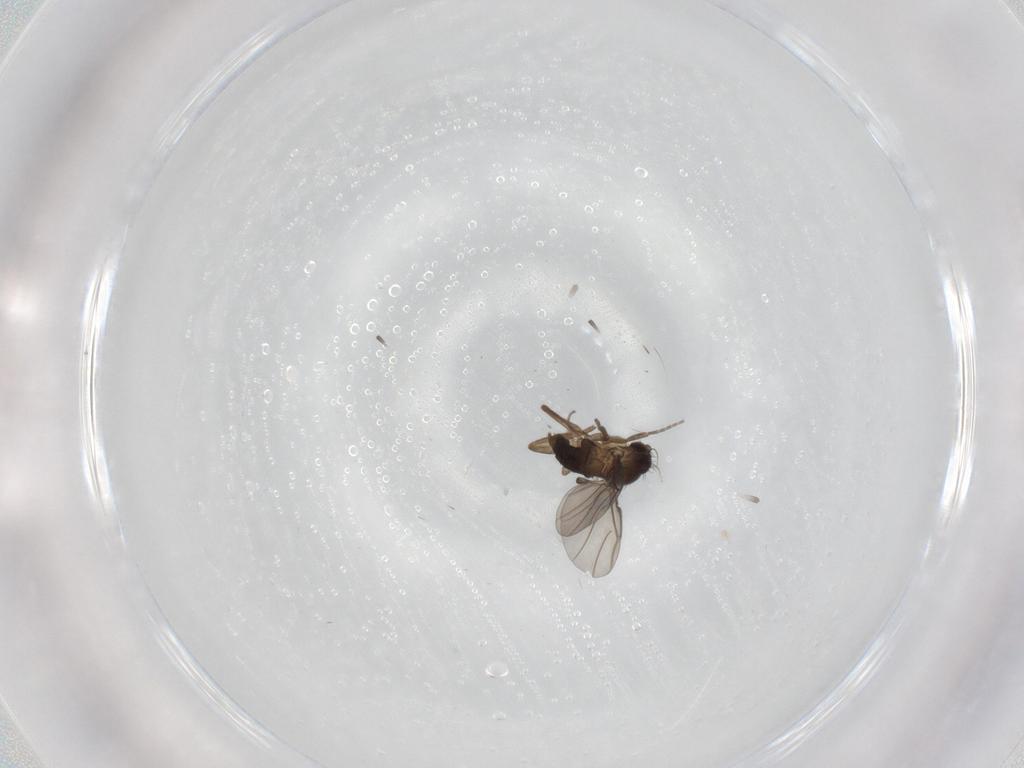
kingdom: Animalia
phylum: Arthropoda
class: Insecta
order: Diptera
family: Phoridae
